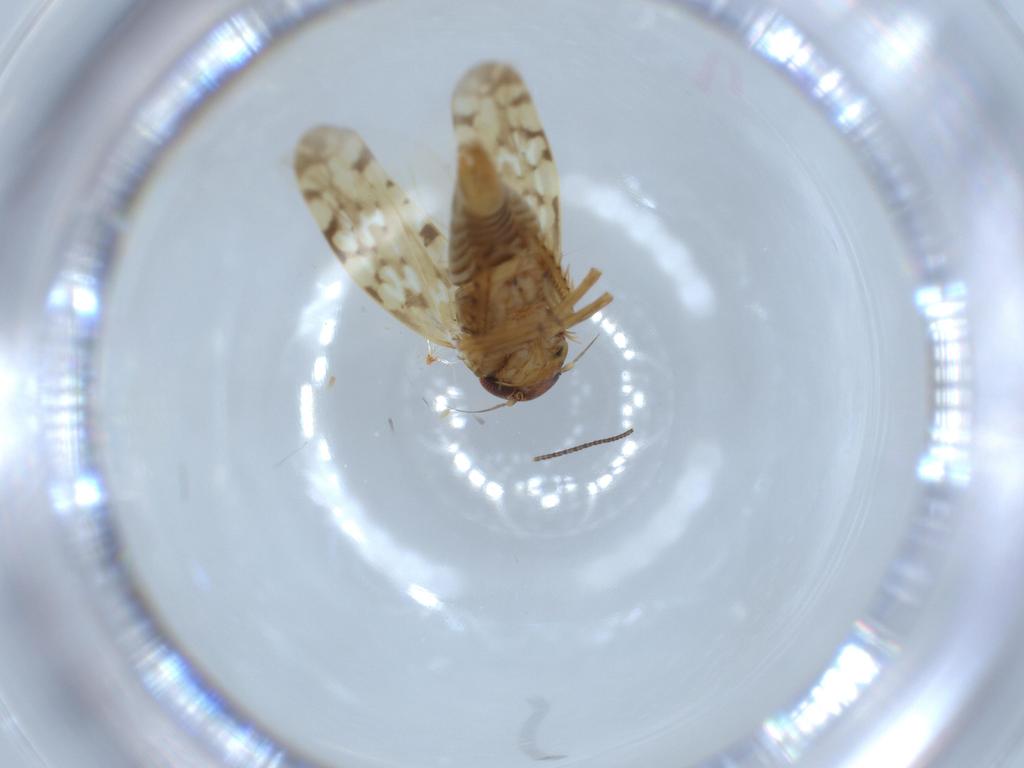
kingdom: Animalia
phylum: Arthropoda
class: Insecta
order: Hemiptera
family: Cicadellidae
